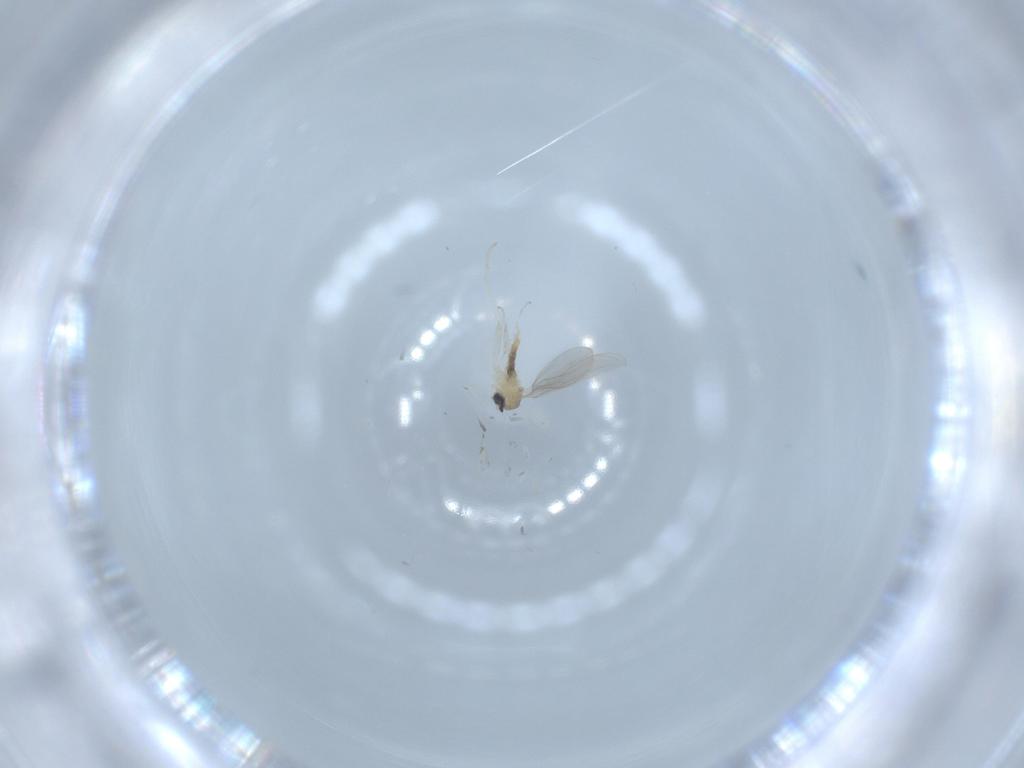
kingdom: Animalia
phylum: Arthropoda
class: Insecta
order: Diptera
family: Cecidomyiidae
